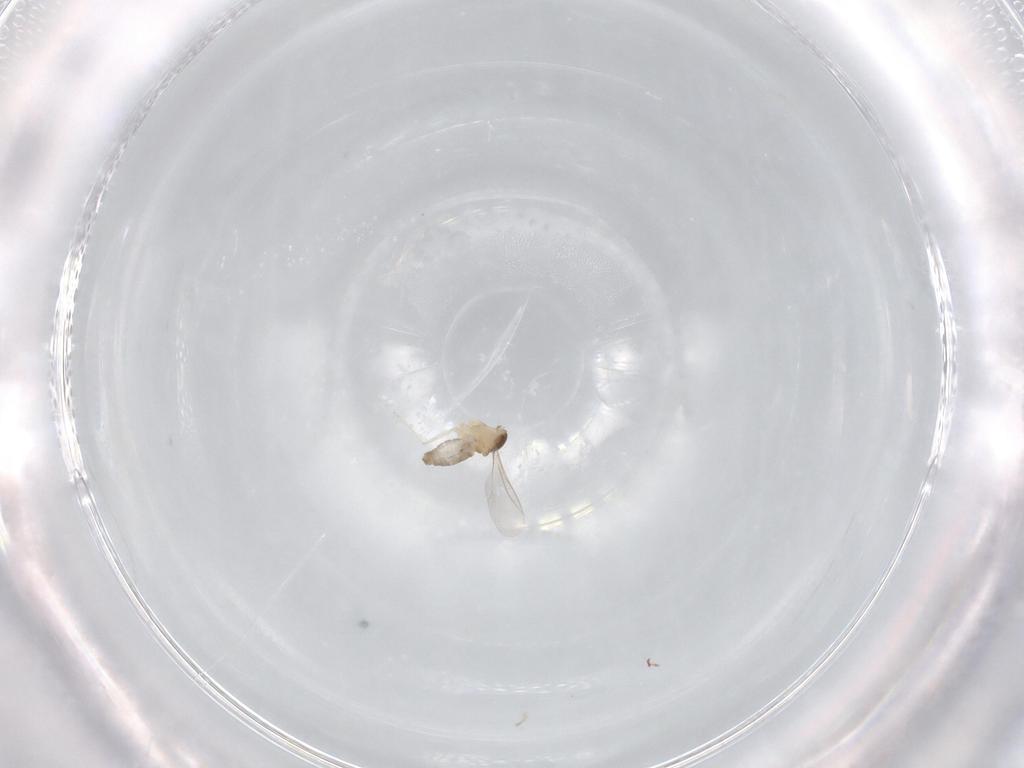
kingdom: Animalia
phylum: Arthropoda
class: Insecta
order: Diptera
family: Cecidomyiidae
